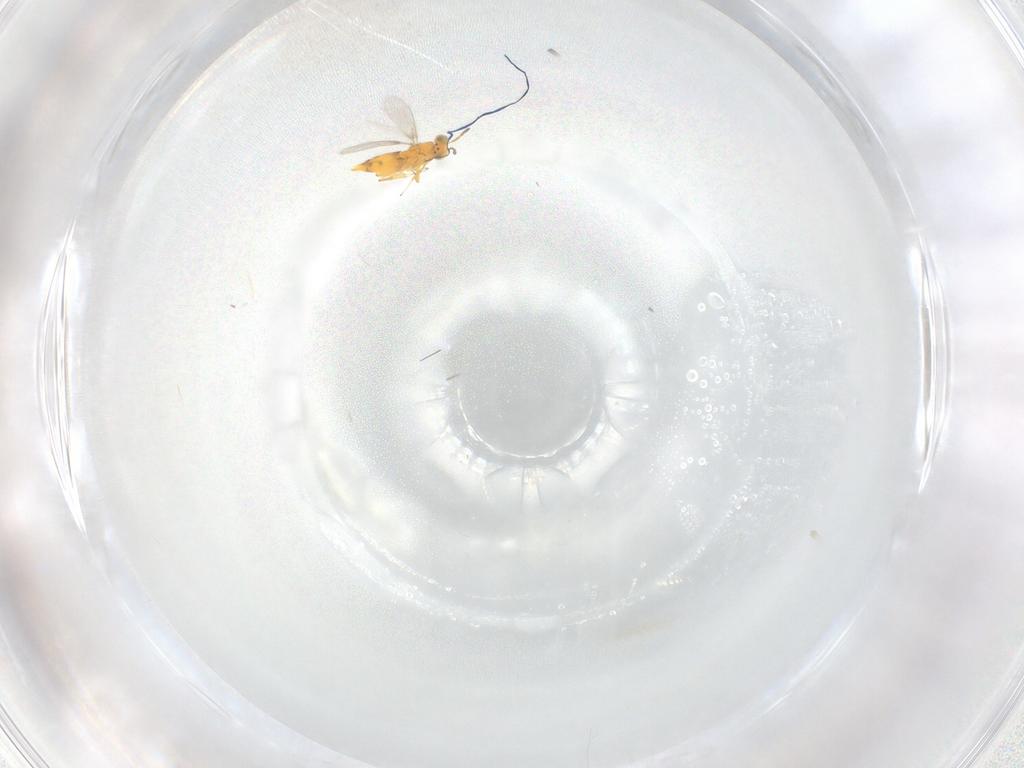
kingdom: Animalia
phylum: Arthropoda
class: Insecta
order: Hymenoptera
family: Aphelinidae
